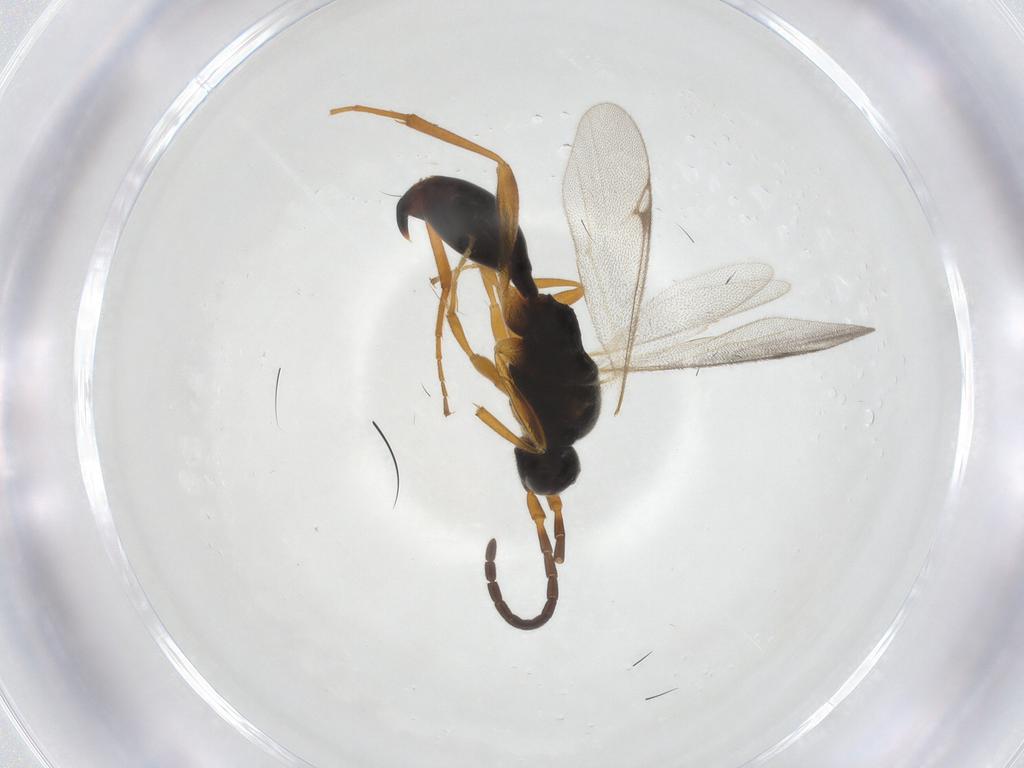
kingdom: Animalia
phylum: Arthropoda
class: Insecta
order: Hymenoptera
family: Proctotrupidae
